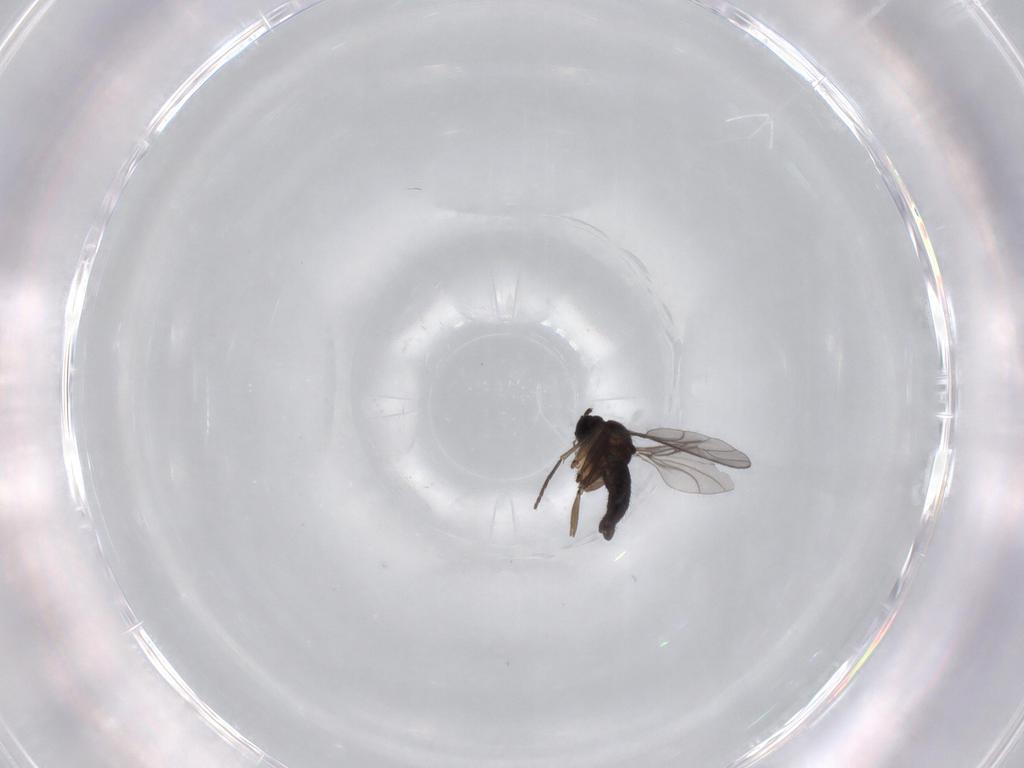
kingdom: Animalia
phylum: Arthropoda
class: Insecta
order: Diptera
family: Sciaridae
